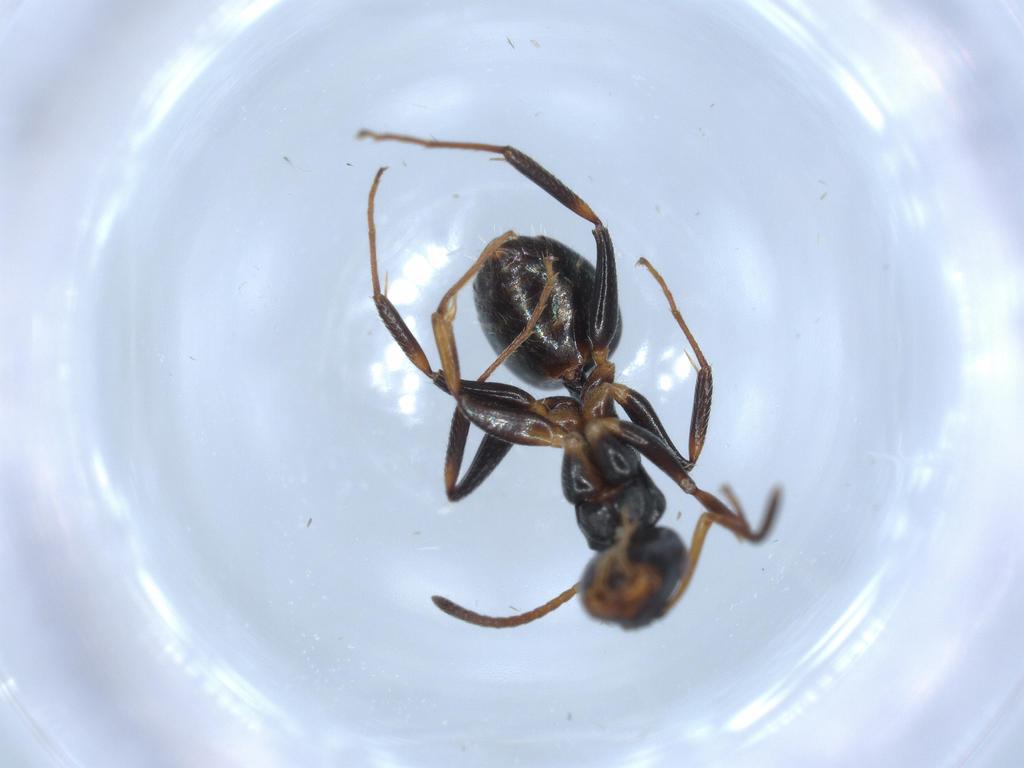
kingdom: Animalia
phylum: Arthropoda
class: Insecta
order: Hymenoptera
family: Formicidae
